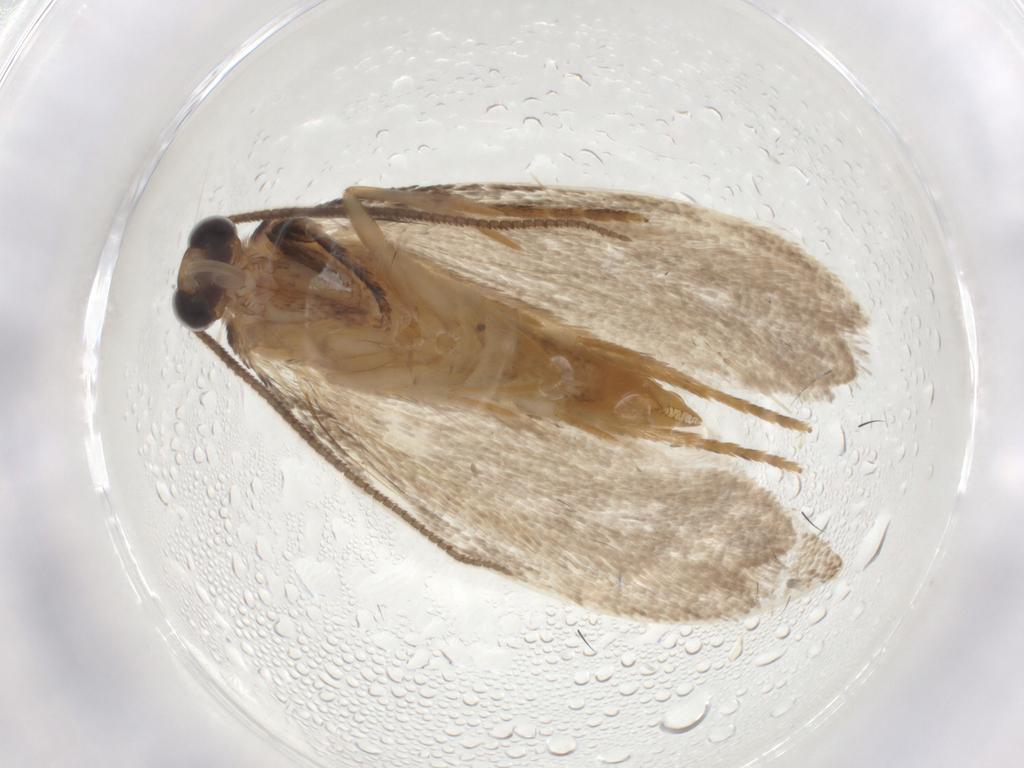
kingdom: Animalia
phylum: Arthropoda
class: Insecta
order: Lepidoptera
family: Eriocottidae
